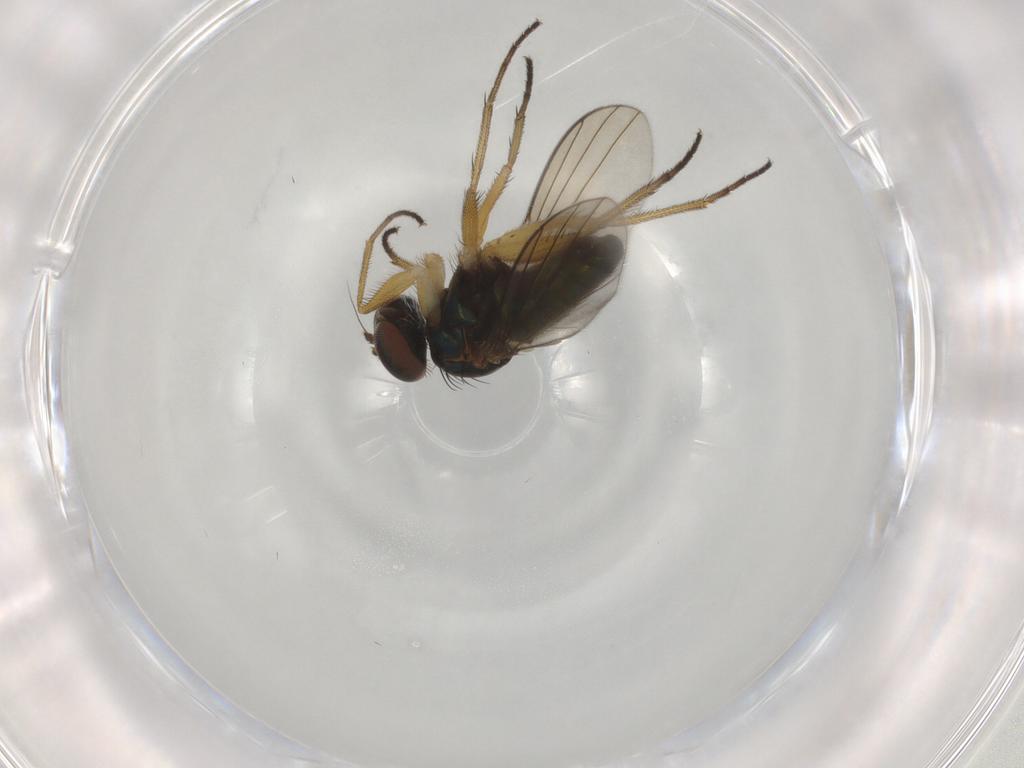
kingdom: Animalia
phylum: Arthropoda
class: Insecta
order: Diptera
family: Dolichopodidae
